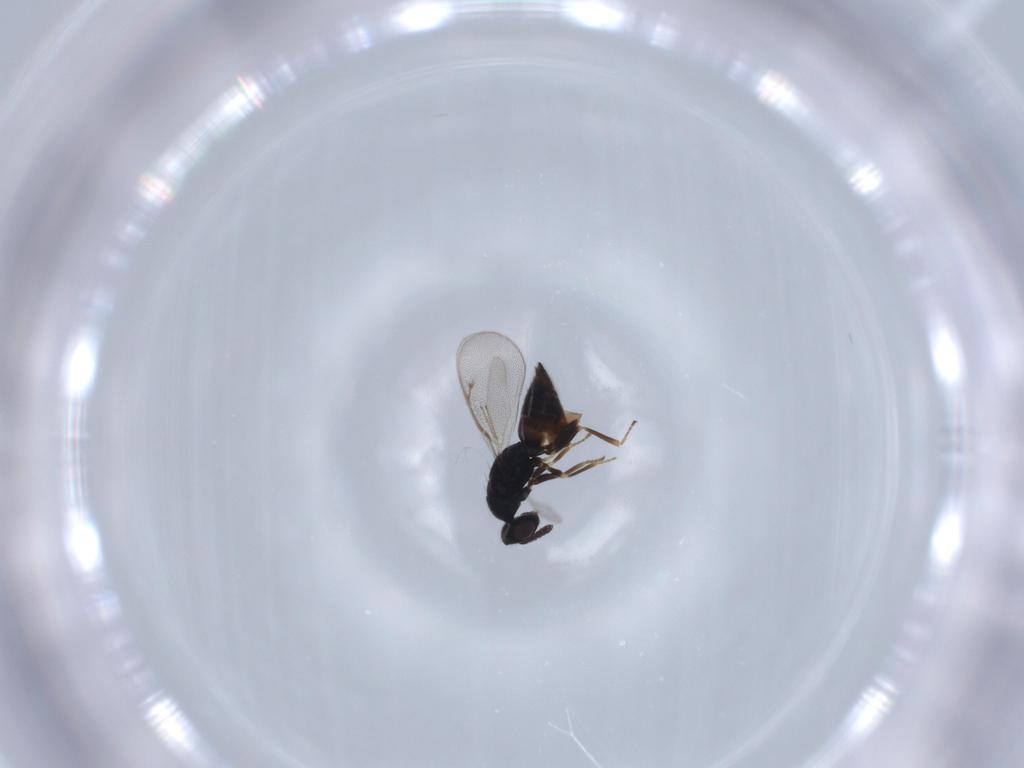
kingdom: Animalia
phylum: Arthropoda
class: Insecta
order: Hymenoptera
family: Eulophidae
